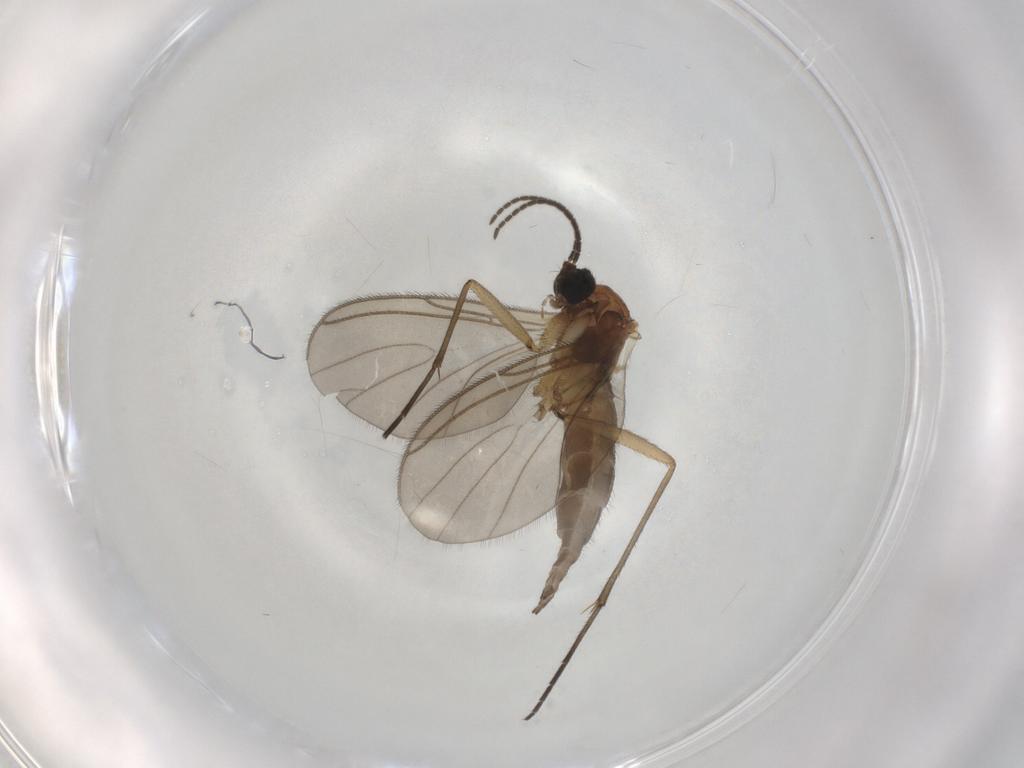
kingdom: Animalia
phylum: Arthropoda
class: Insecta
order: Diptera
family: Sciaridae
